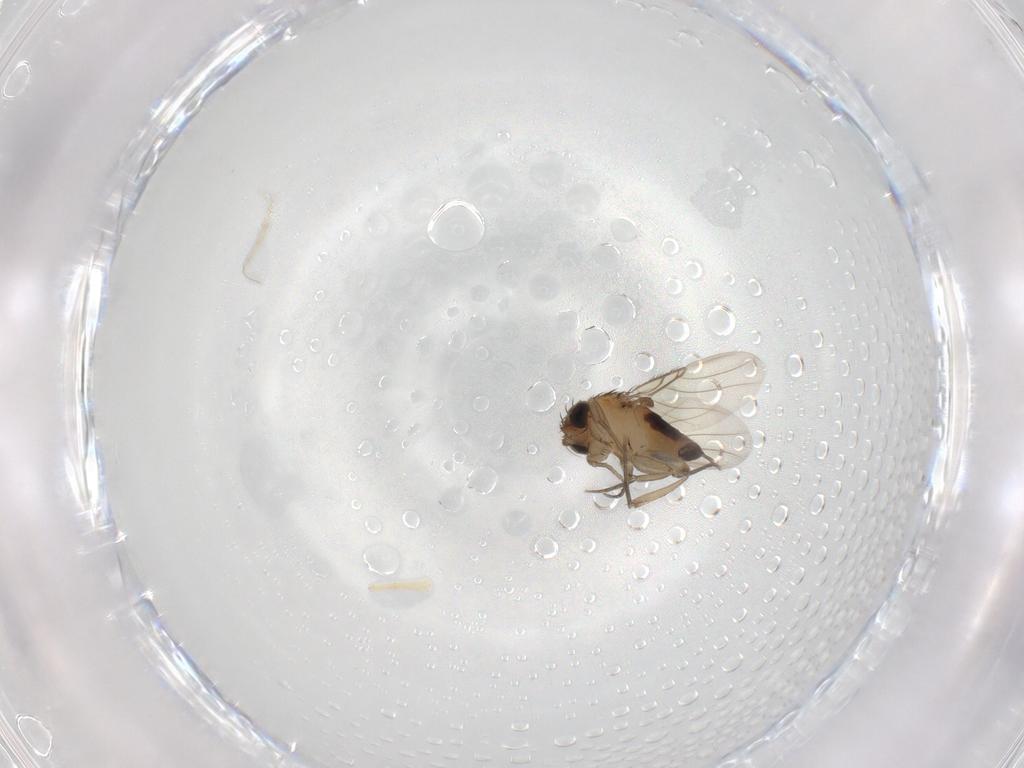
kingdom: Animalia
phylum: Arthropoda
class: Insecta
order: Diptera
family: Phoridae
